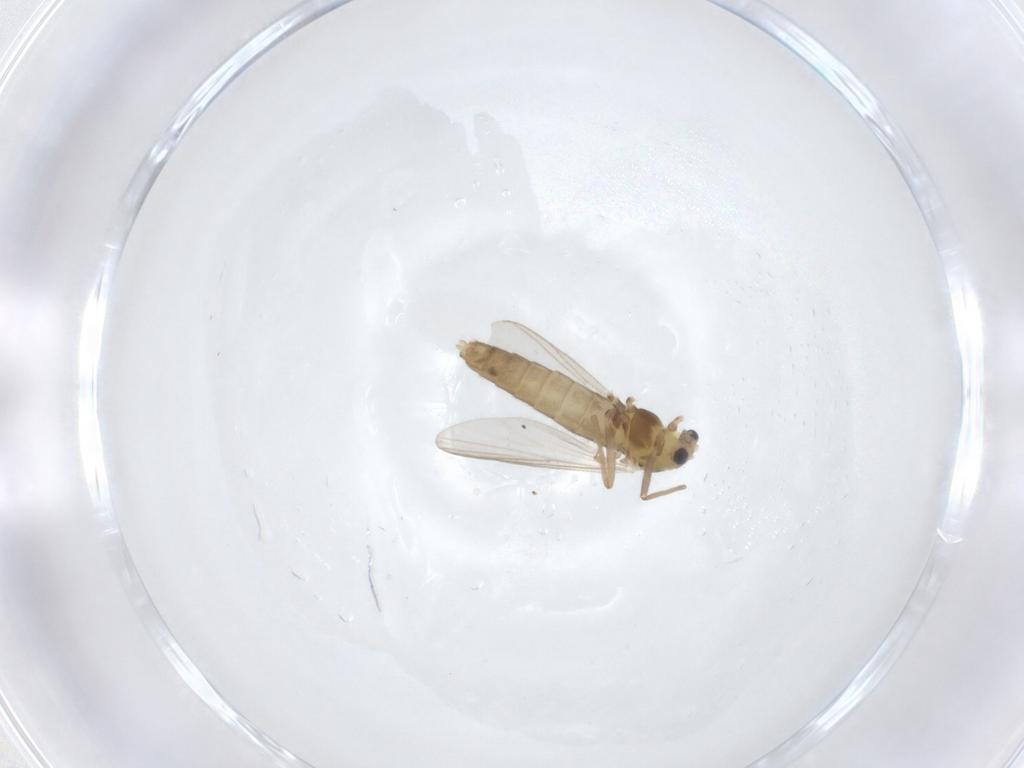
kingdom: Animalia
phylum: Arthropoda
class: Insecta
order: Diptera
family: Chironomidae
